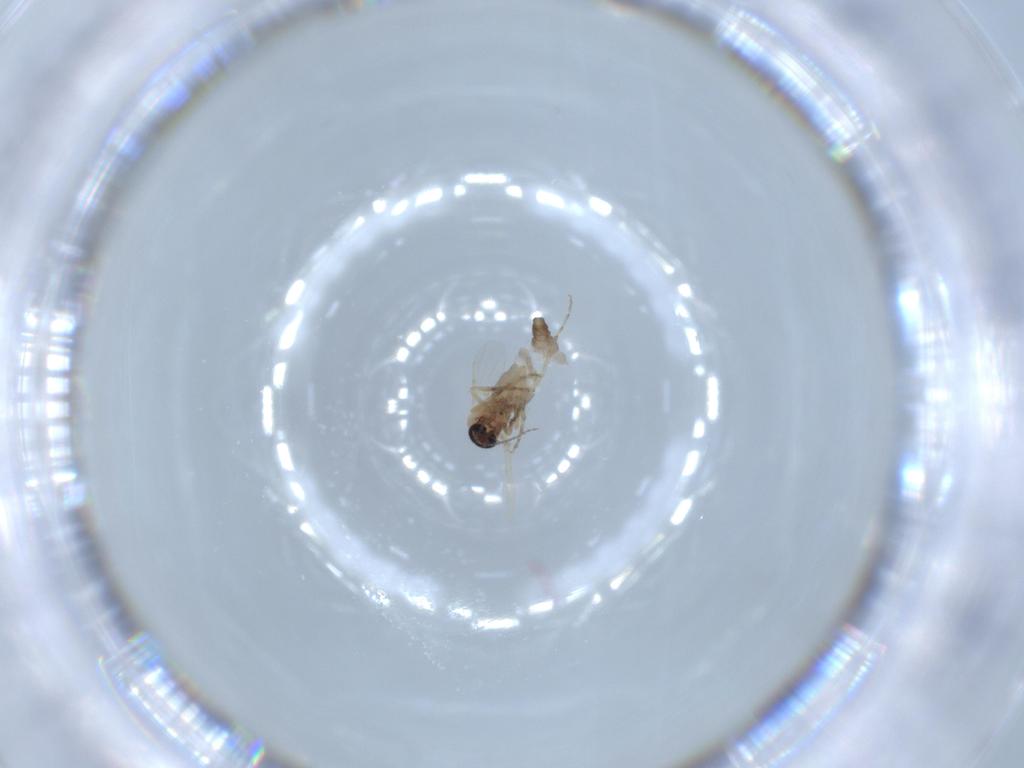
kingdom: Animalia
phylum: Arthropoda
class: Insecta
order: Diptera
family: Ceratopogonidae
